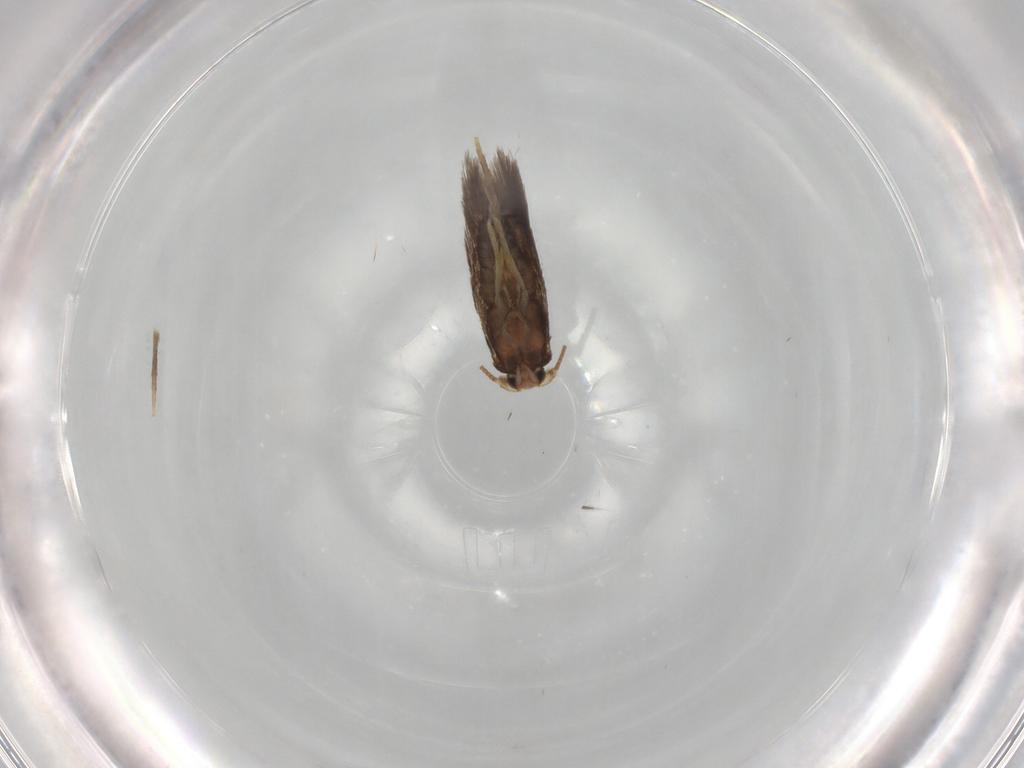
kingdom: Animalia
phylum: Arthropoda
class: Insecta
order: Lepidoptera
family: Nepticulidae
